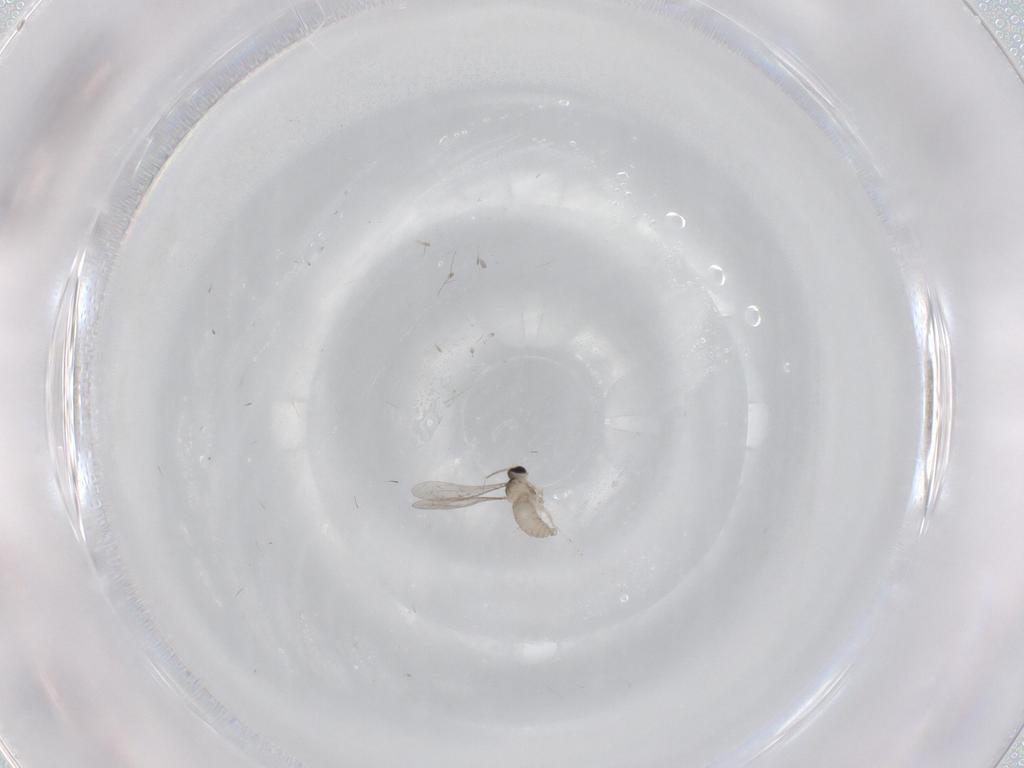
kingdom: Animalia
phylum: Arthropoda
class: Insecta
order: Diptera
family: Cecidomyiidae
